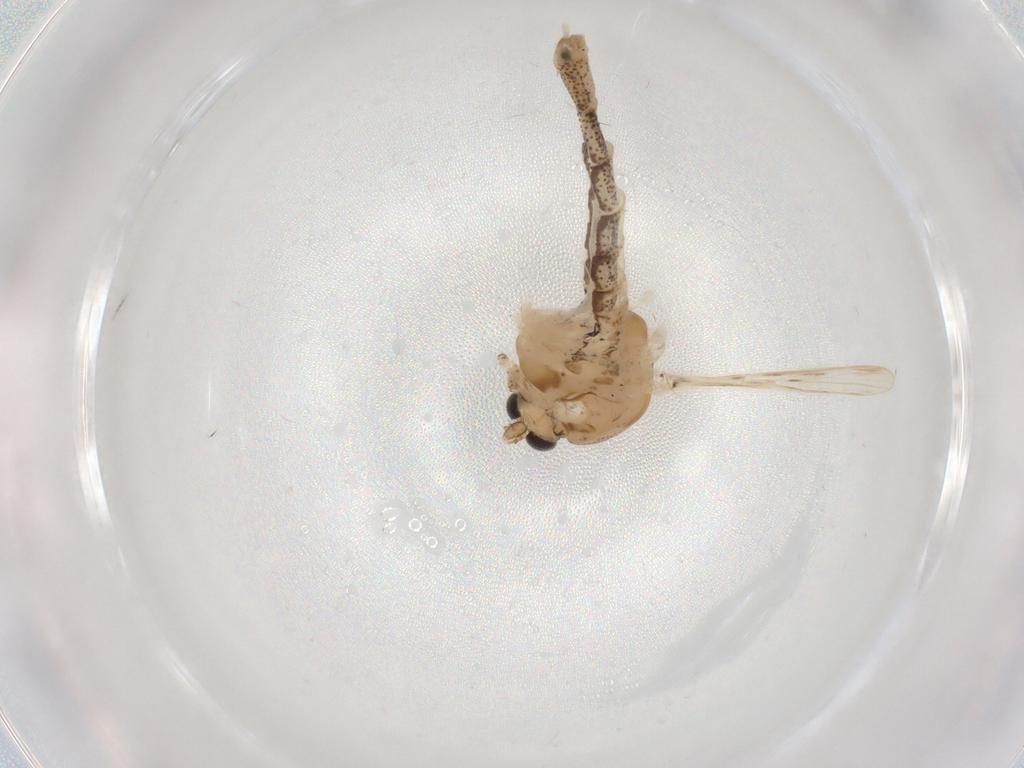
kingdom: Animalia
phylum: Arthropoda
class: Insecta
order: Diptera
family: Chaoboridae
